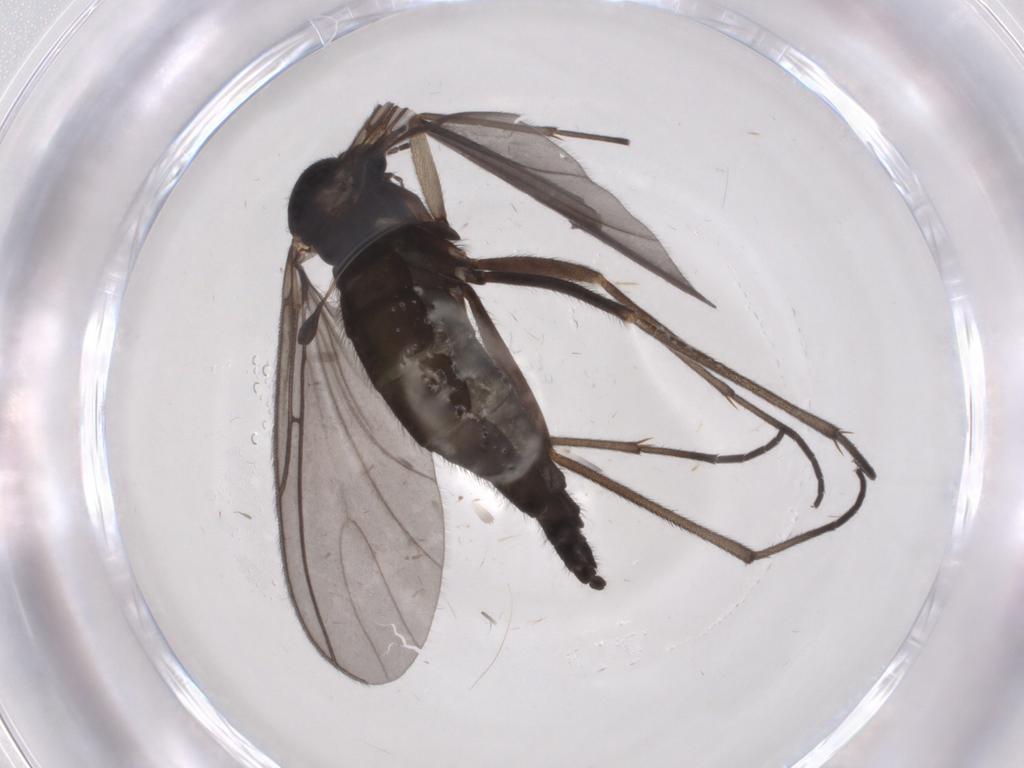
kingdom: Animalia
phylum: Arthropoda
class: Insecta
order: Diptera
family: Sciaridae
